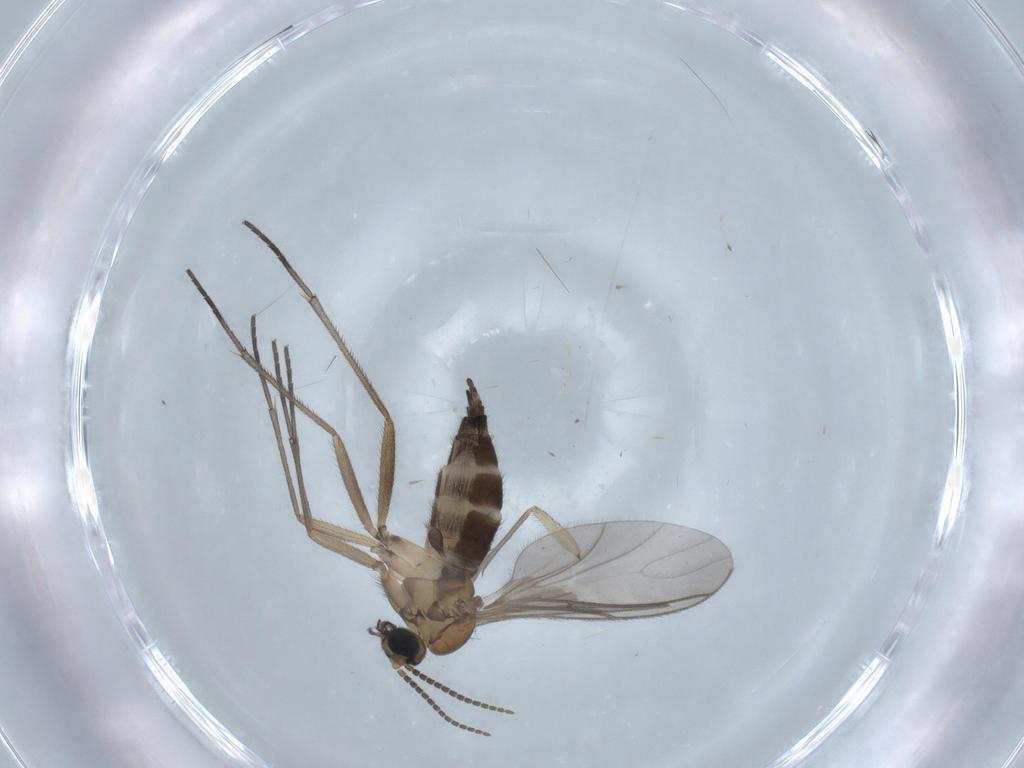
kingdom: Animalia
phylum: Arthropoda
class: Insecta
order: Diptera
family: Sciaridae
